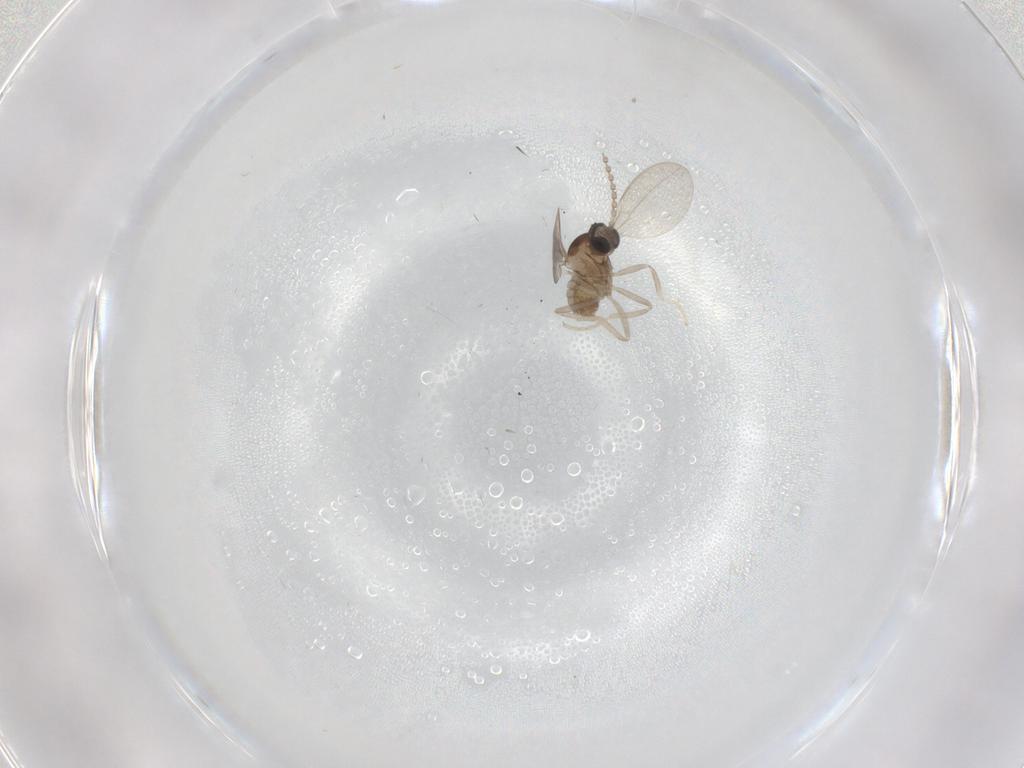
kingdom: Animalia
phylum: Arthropoda
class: Insecta
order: Diptera
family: Cecidomyiidae
